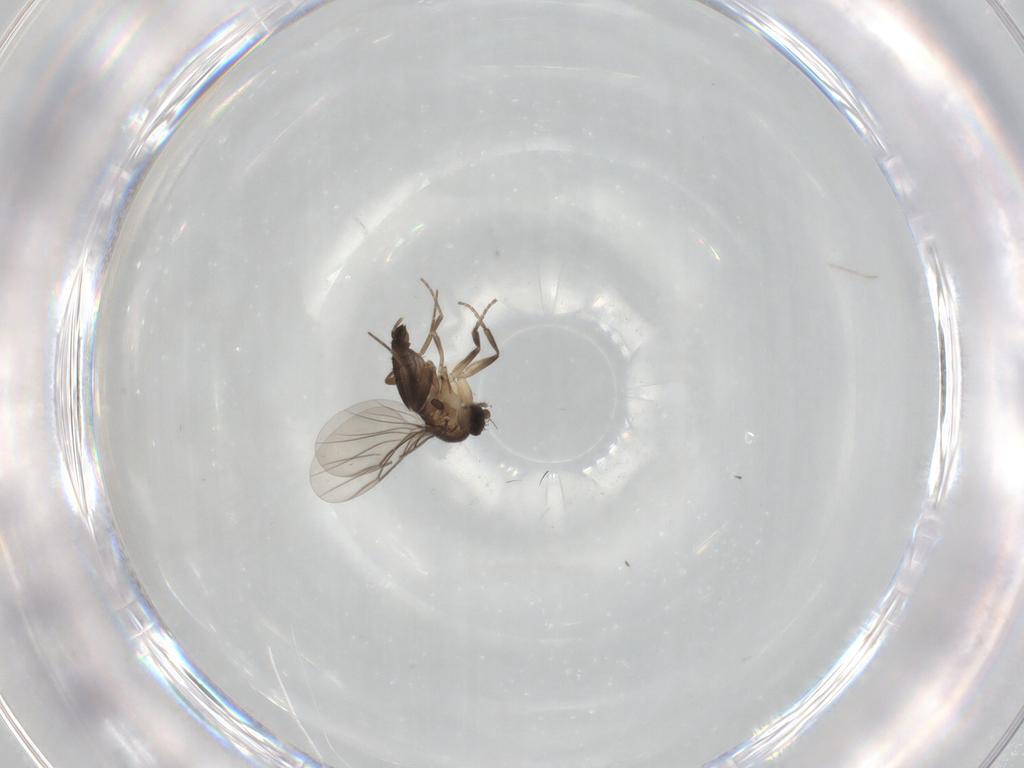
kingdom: Animalia
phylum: Arthropoda
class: Insecta
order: Diptera
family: Phoridae
